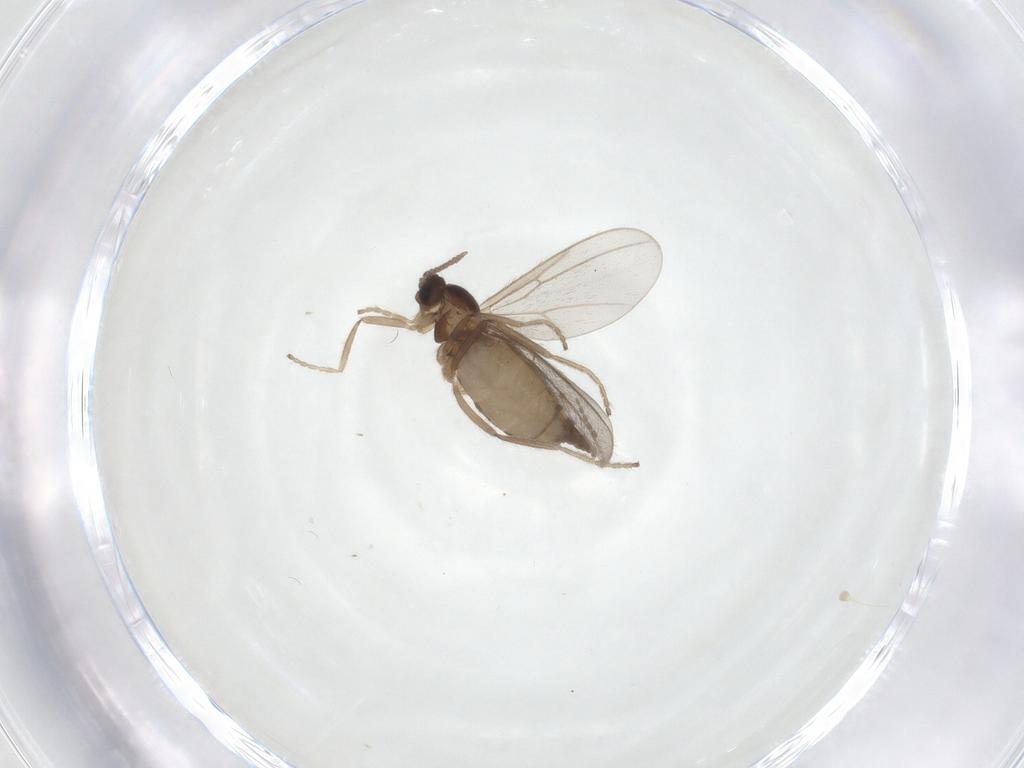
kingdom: Animalia
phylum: Arthropoda
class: Insecta
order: Diptera
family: Cecidomyiidae
